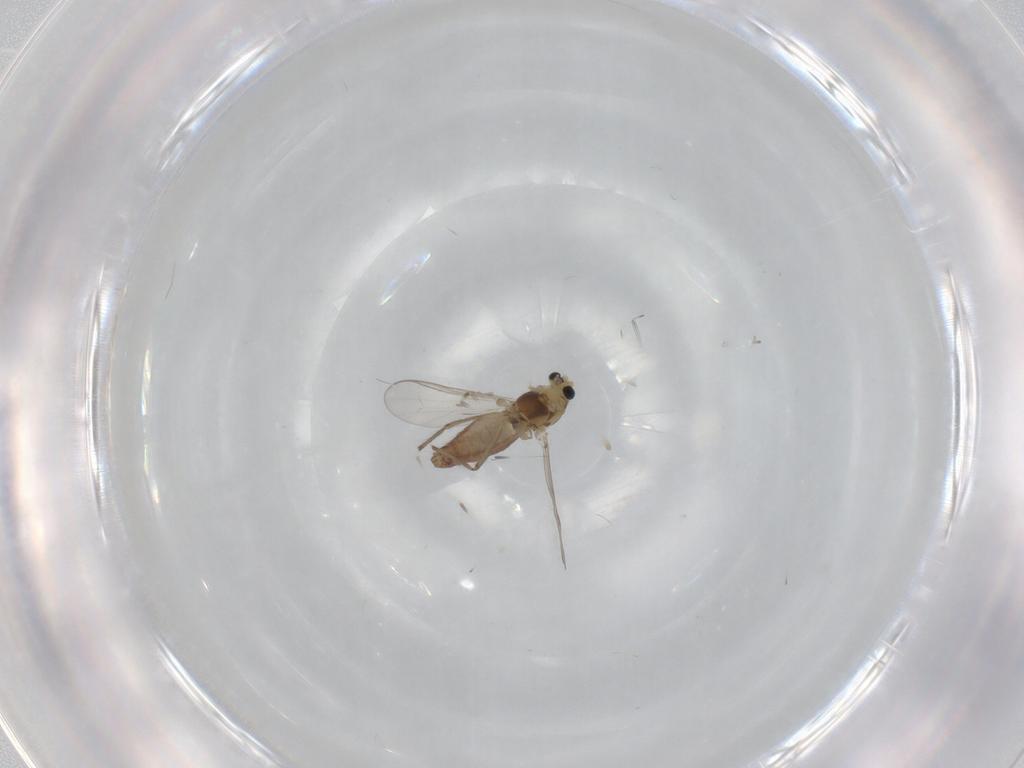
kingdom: Animalia
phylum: Arthropoda
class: Insecta
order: Diptera
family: Chironomidae
